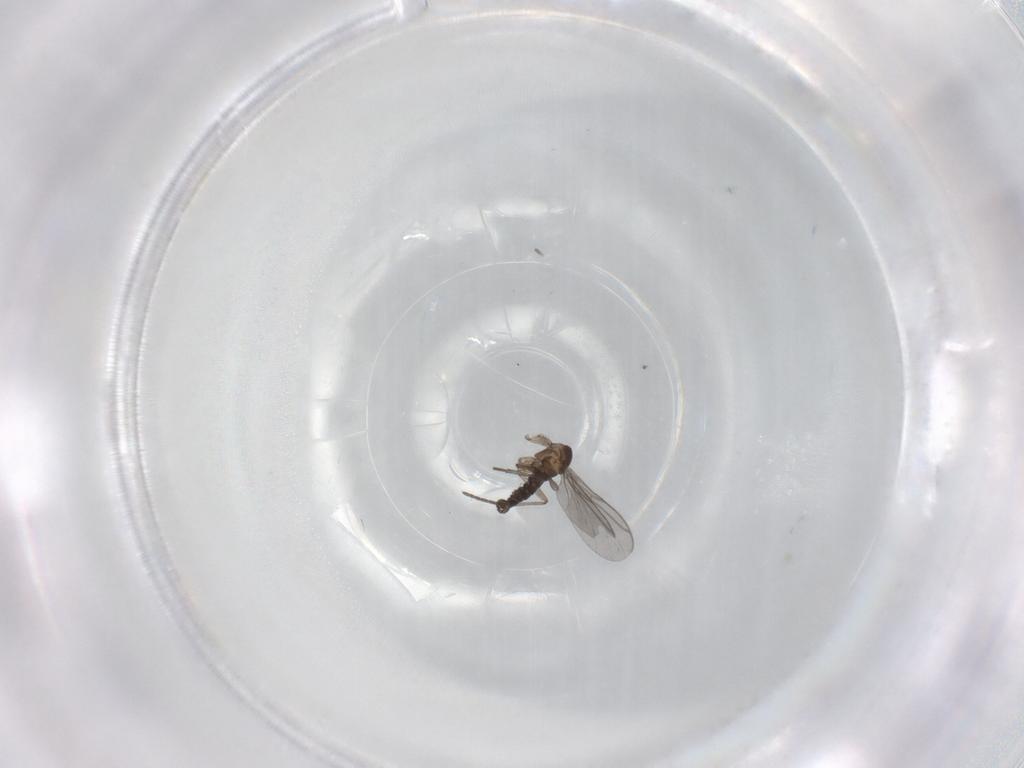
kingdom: Animalia
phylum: Arthropoda
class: Insecta
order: Diptera
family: Sciaridae
